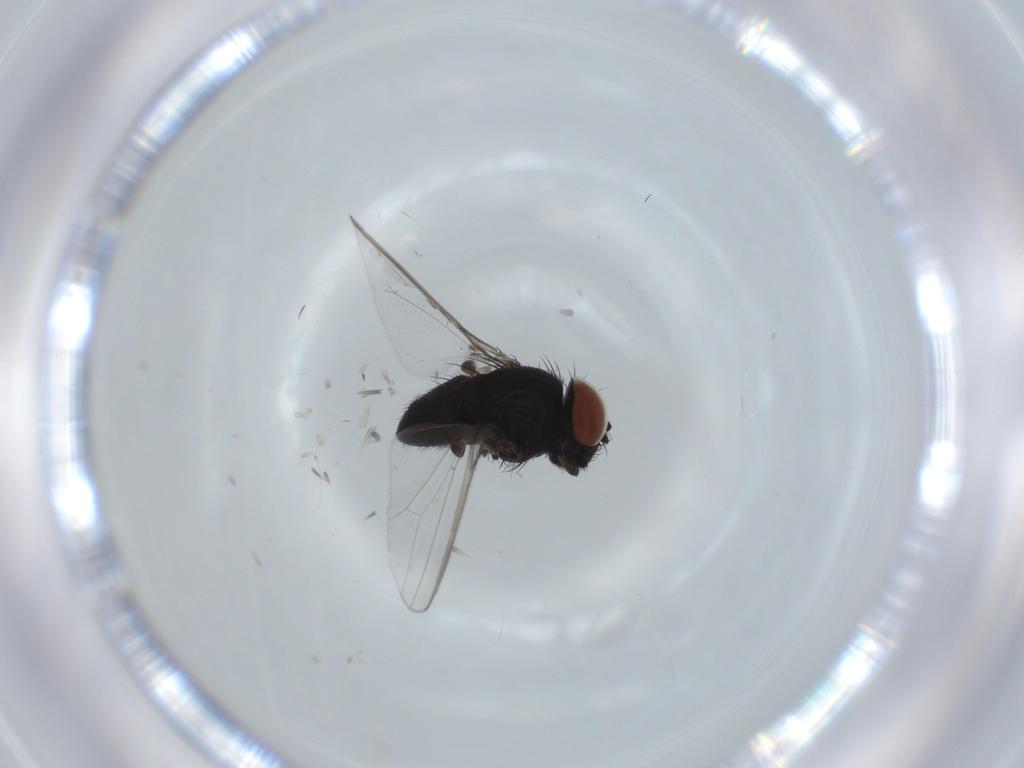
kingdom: Animalia
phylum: Arthropoda
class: Insecta
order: Diptera
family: Milichiidae
